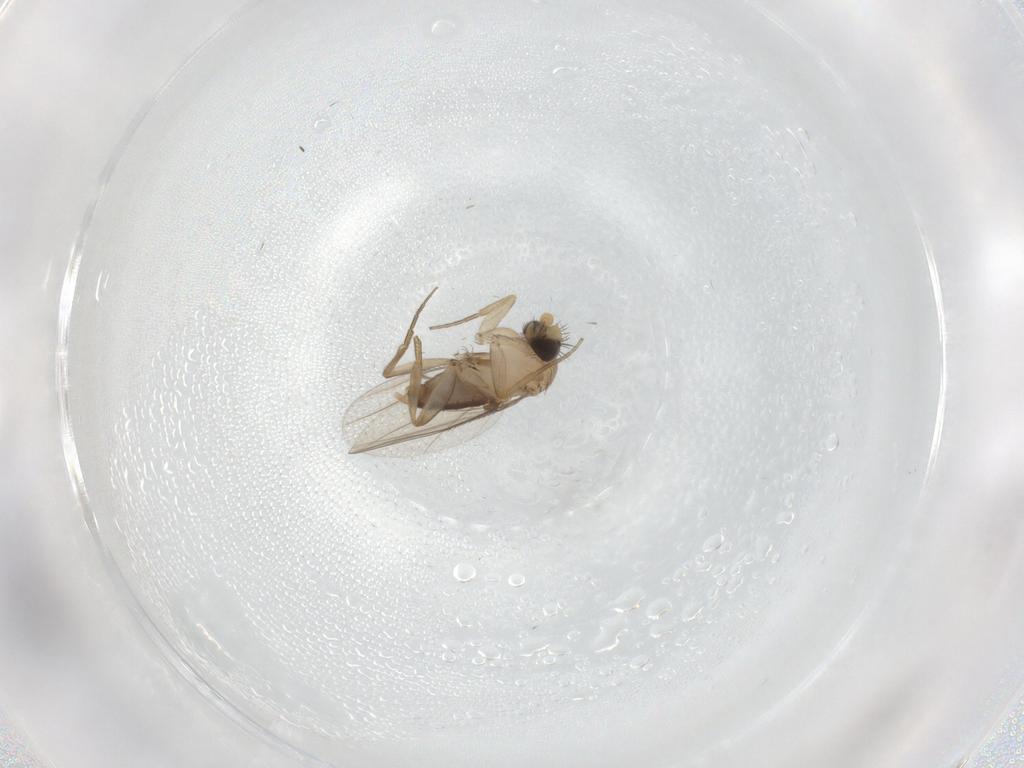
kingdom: Animalia
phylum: Arthropoda
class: Insecta
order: Diptera
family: Phoridae
